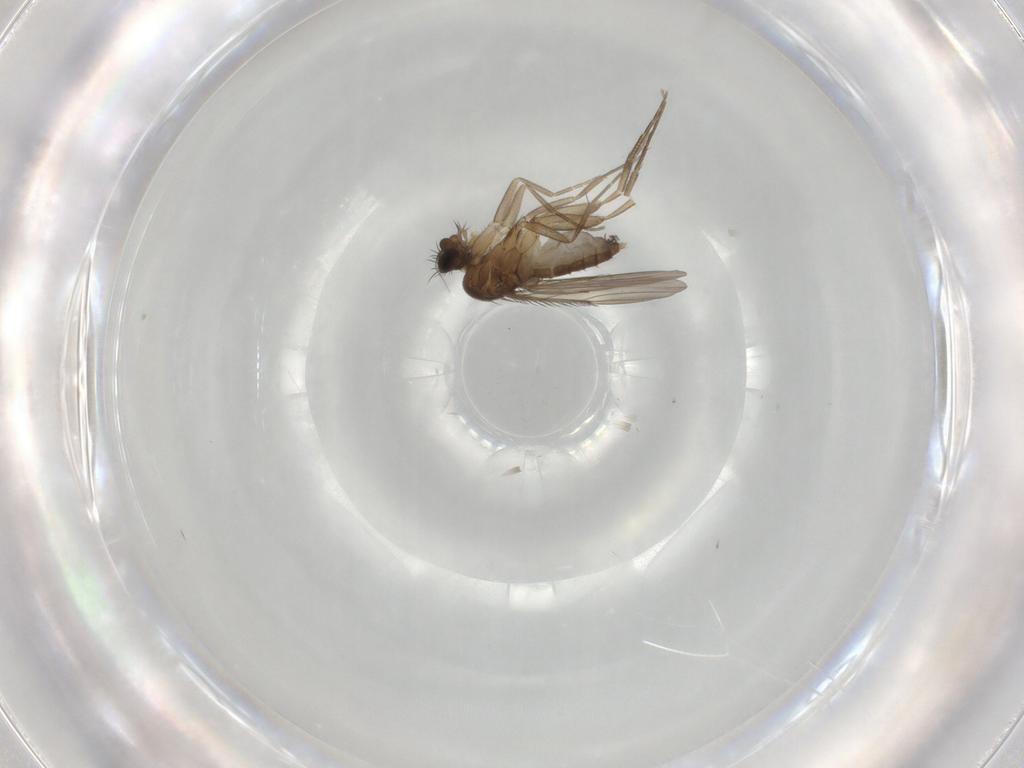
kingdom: Animalia
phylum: Arthropoda
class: Insecta
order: Diptera
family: Phoridae
